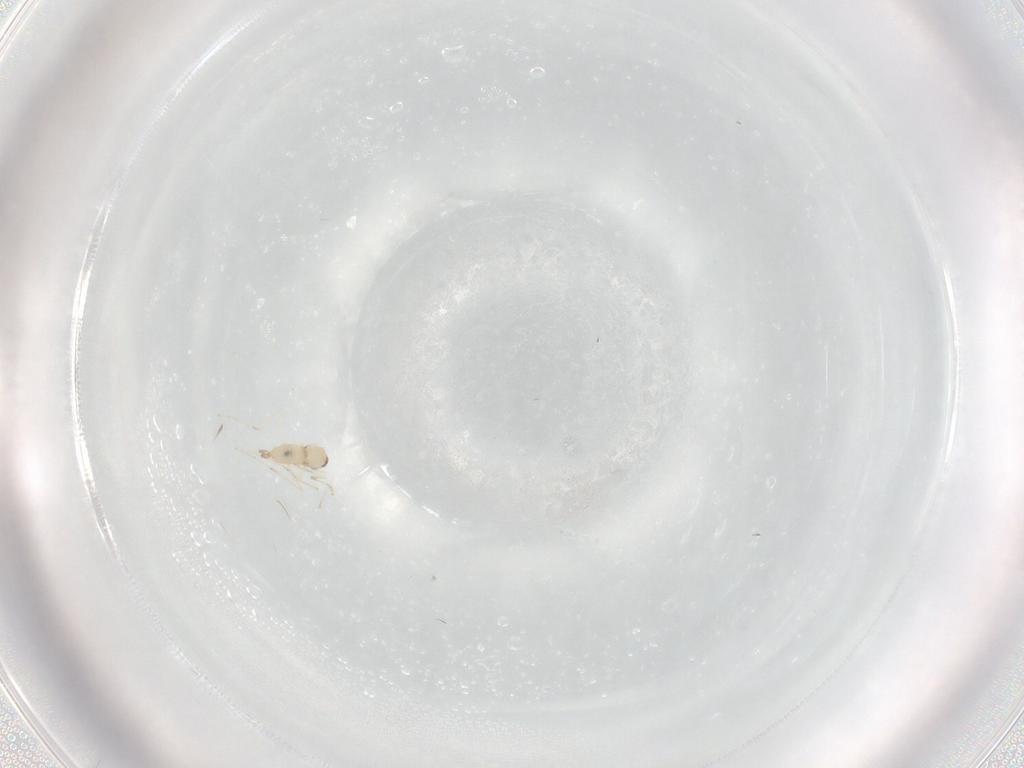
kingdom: Animalia
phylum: Arthropoda
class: Insecta
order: Diptera
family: Cecidomyiidae
